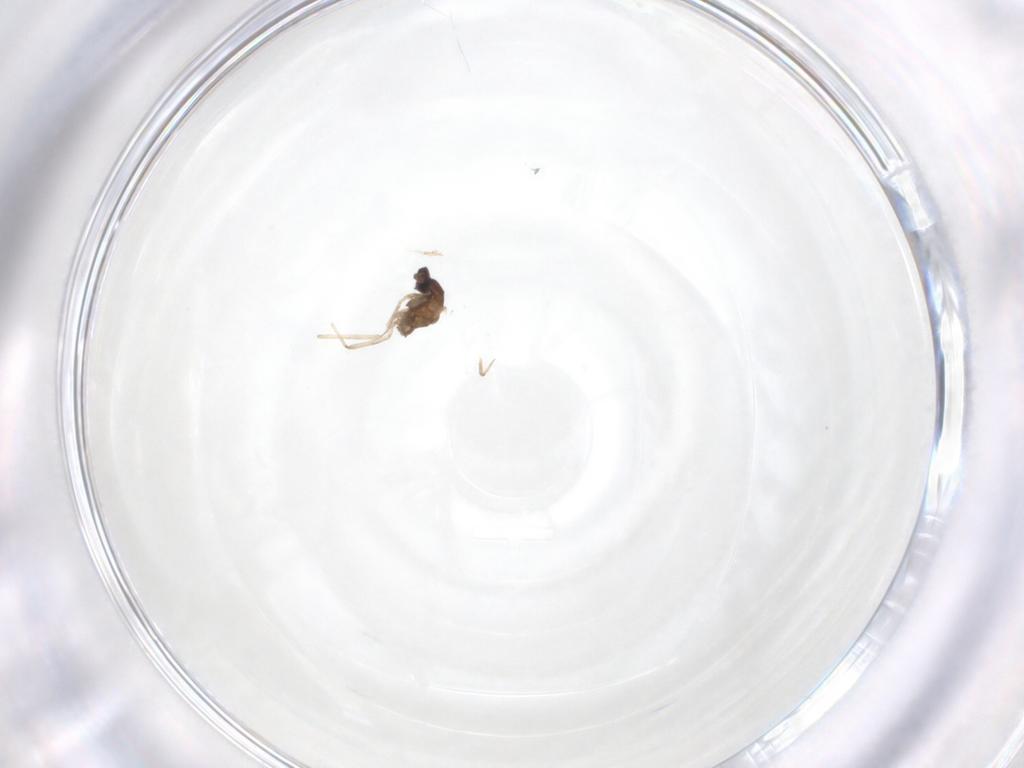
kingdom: Animalia
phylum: Arthropoda
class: Insecta
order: Diptera
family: Cecidomyiidae
